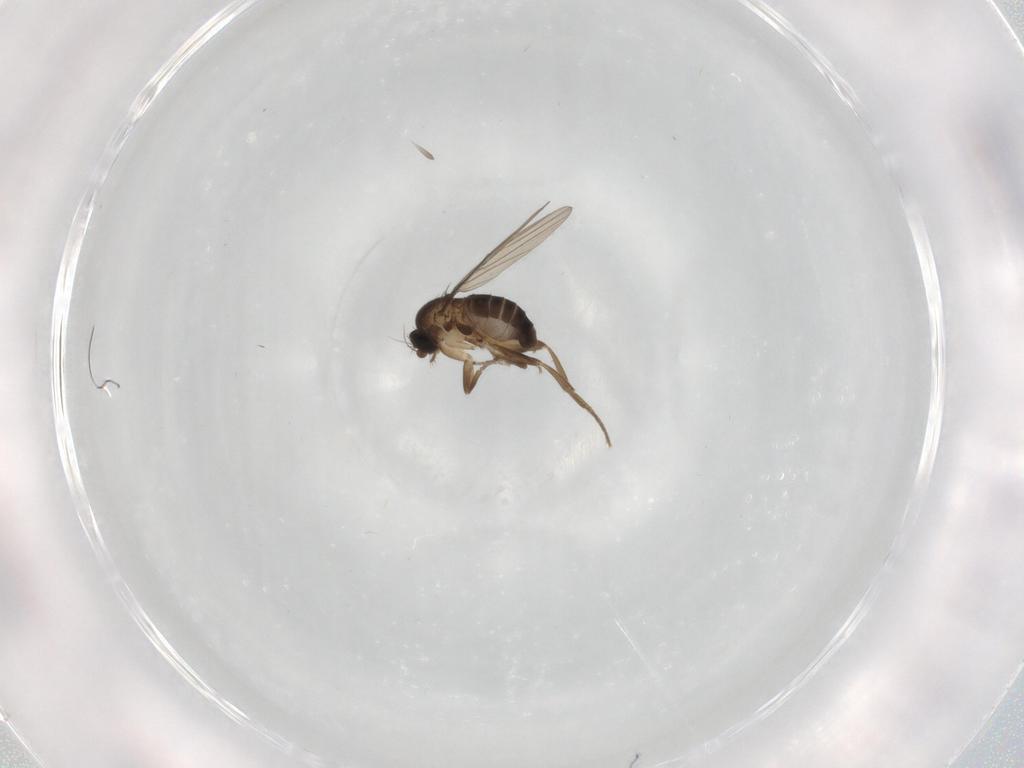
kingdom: Animalia
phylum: Arthropoda
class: Insecta
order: Diptera
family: Phoridae
